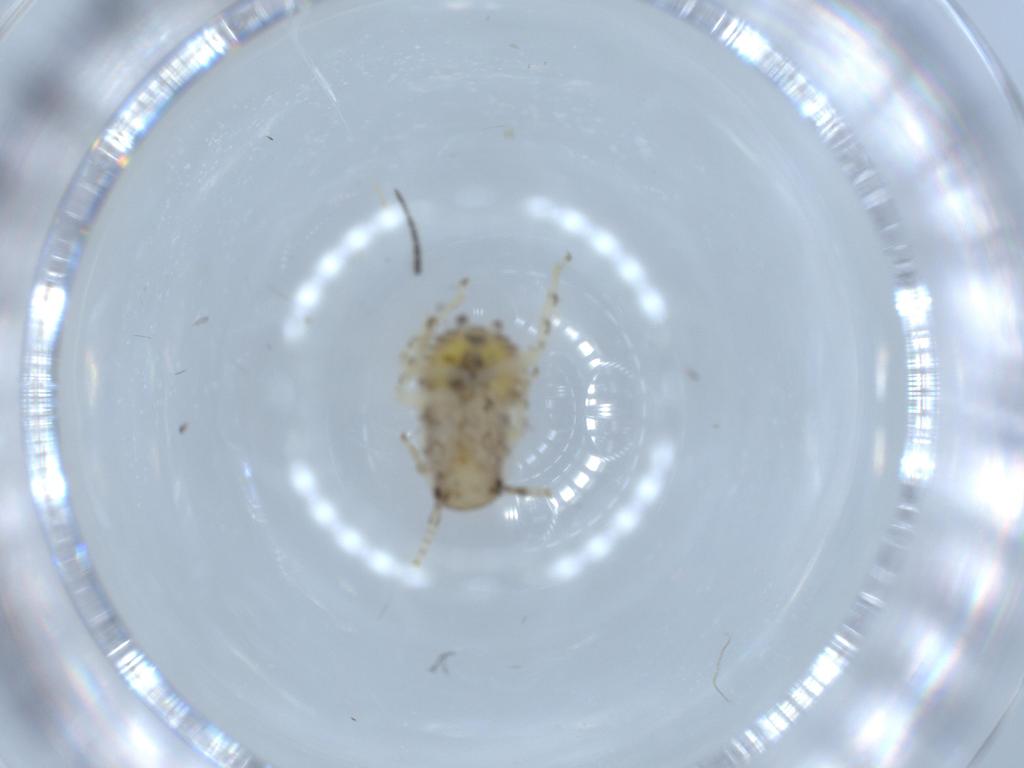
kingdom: Animalia
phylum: Arthropoda
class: Insecta
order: Blattodea
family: Ectobiidae
